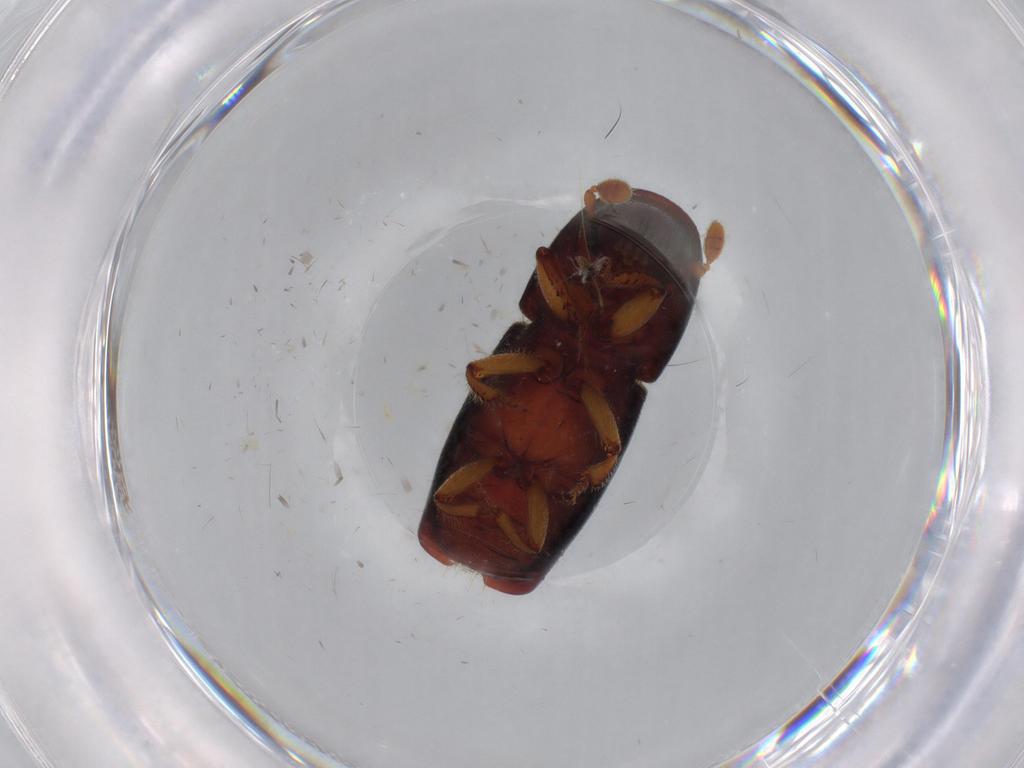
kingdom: Animalia
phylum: Arthropoda
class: Insecta
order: Coleoptera
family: Curculionidae
